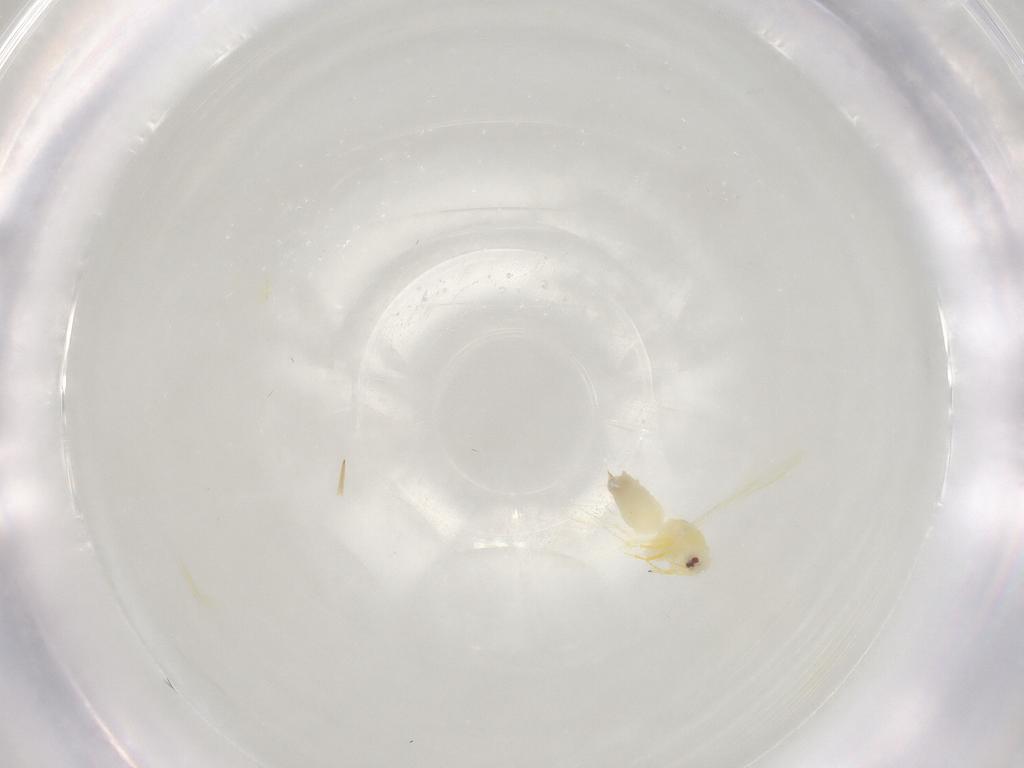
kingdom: Animalia
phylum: Arthropoda
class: Insecta
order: Hemiptera
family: Aleyrodidae
